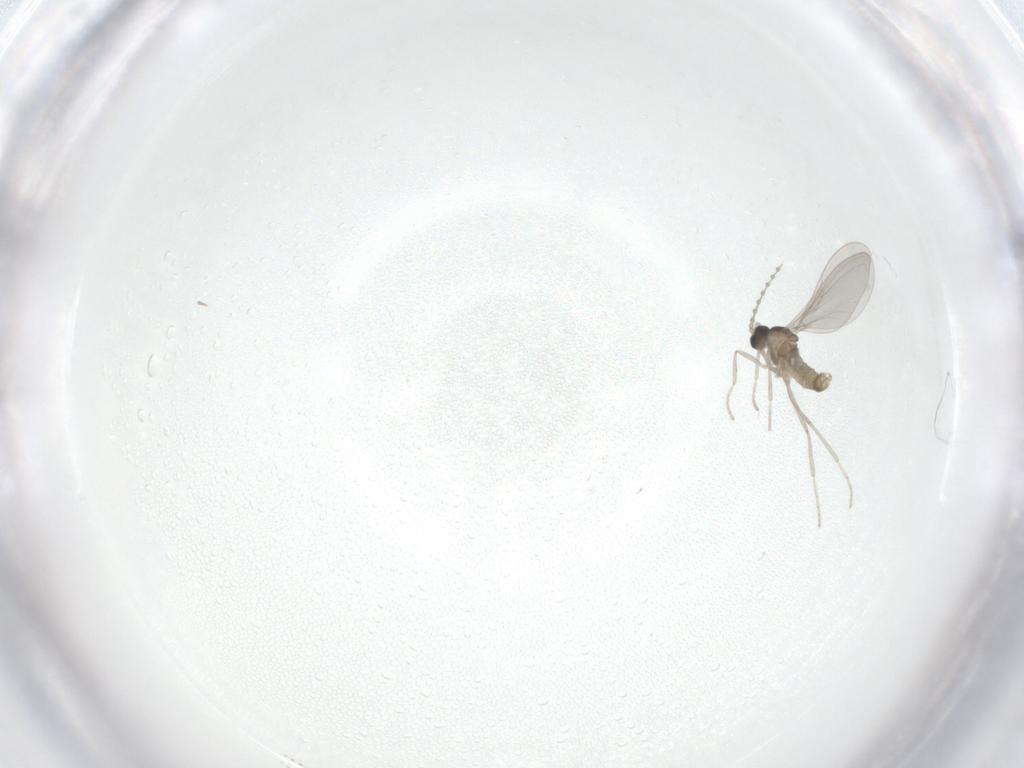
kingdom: Animalia
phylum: Arthropoda
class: Insecta
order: Diptera
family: Cecidomyiidae
